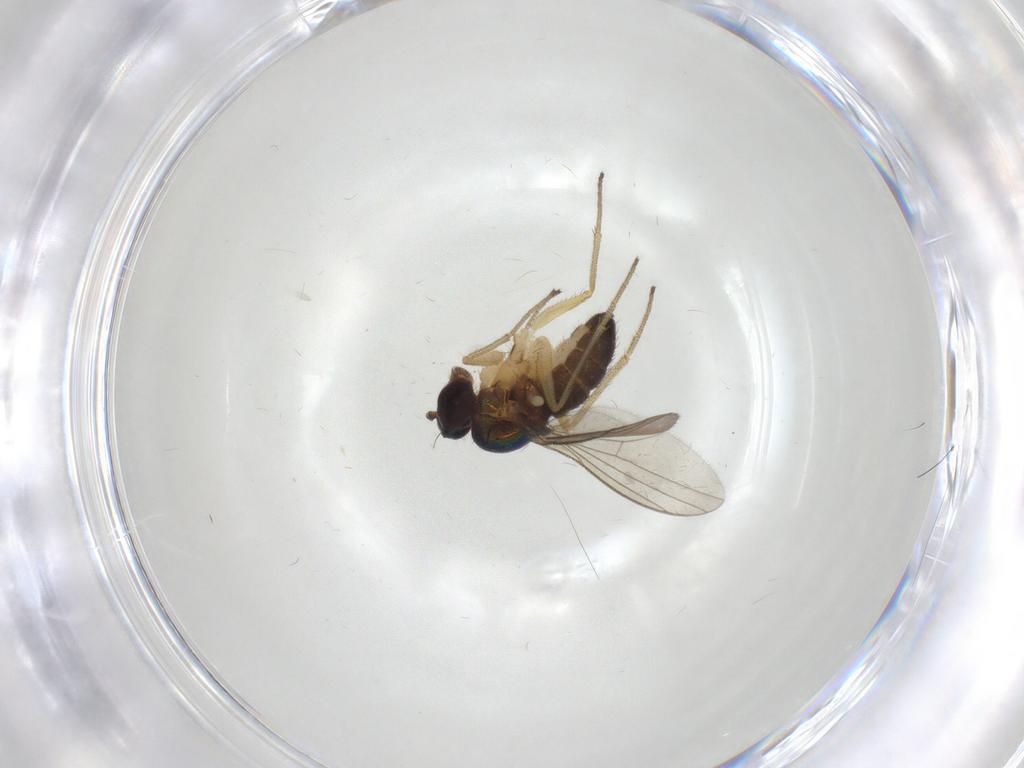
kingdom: Animalia
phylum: Arthropoda
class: Insecta
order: Diptera
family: Dolichopodidae
